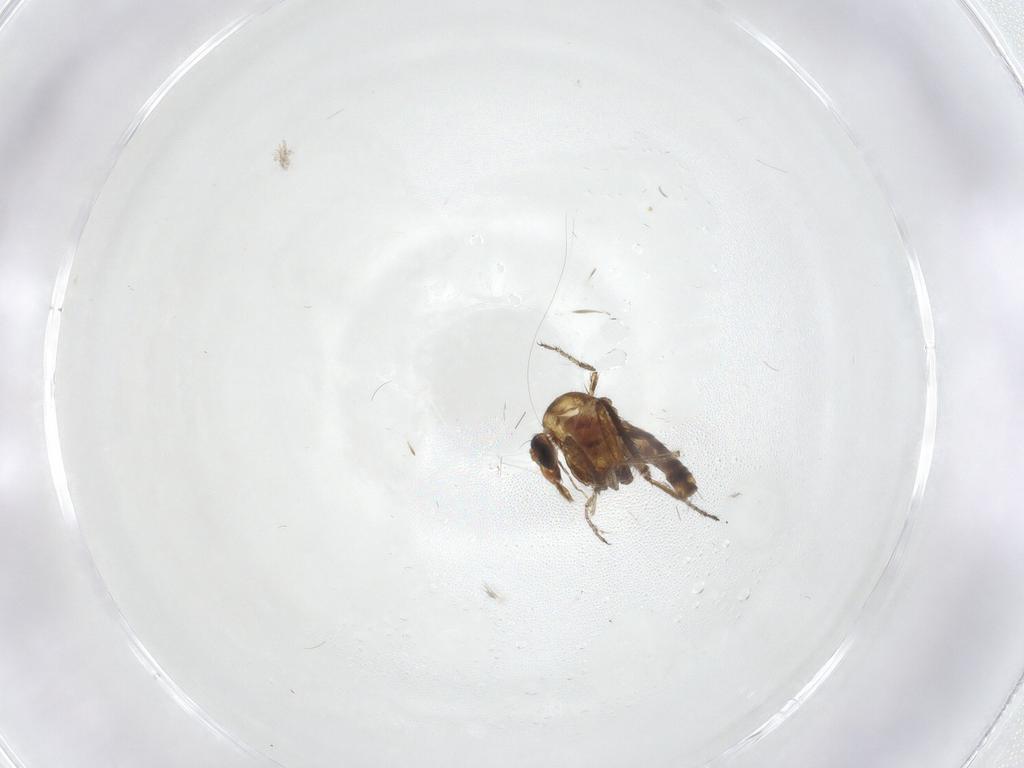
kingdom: Animalia
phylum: Arthropoda
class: Insecta
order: Diptera
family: Cecidomyiidae
